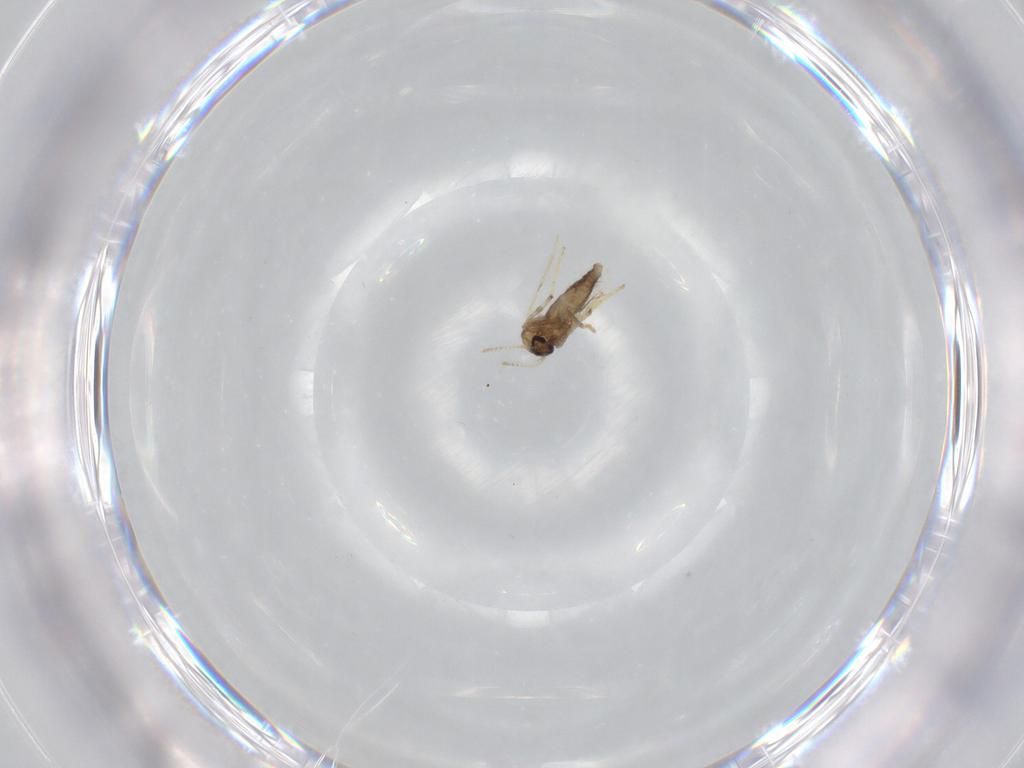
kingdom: Animalia
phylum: Arthropoda
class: Insecta
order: Diptera
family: Ceratopogonidae
